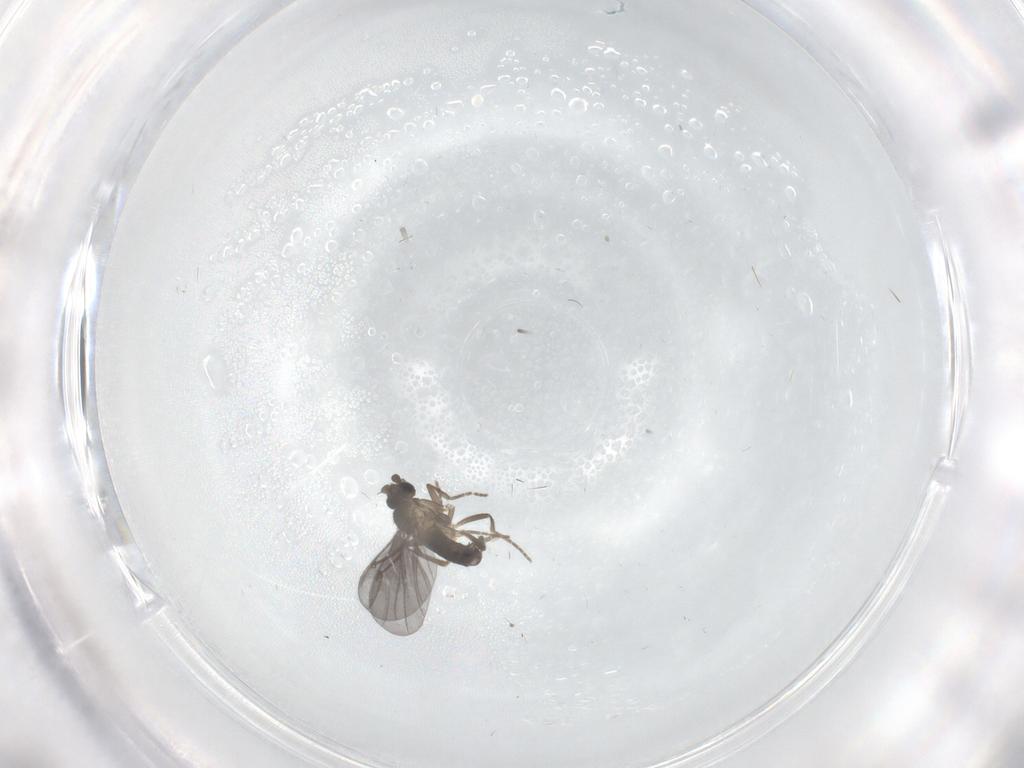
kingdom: Animalia
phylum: Arthropoda
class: Insecta
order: Diptera
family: Phoridae
